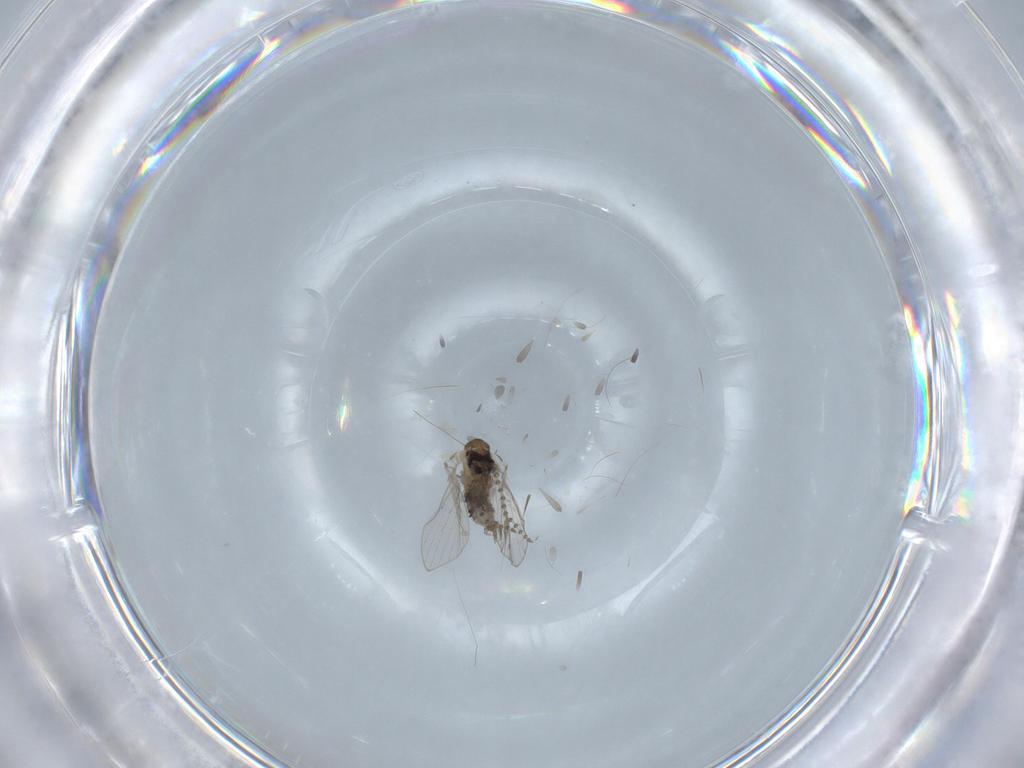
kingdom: Animalia
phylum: Arthropoda
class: Insecta
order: Diptera
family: Psychodidae
